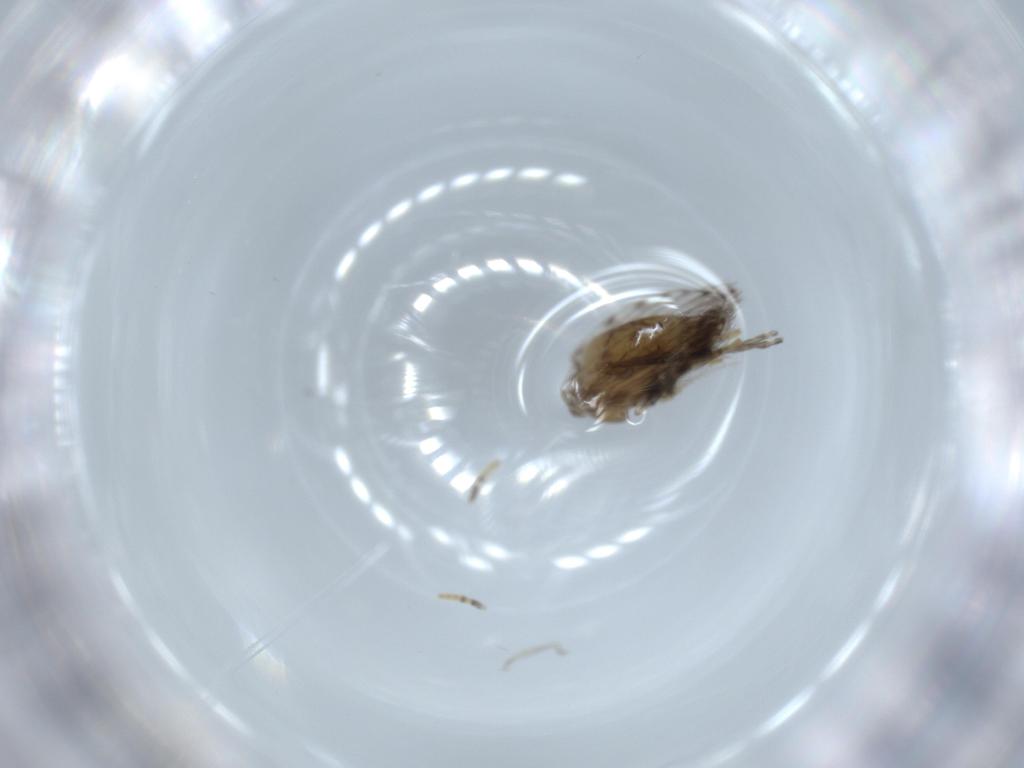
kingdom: Animalia
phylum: Arthropoda
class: Insecta
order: Diptera
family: Psychodidae
